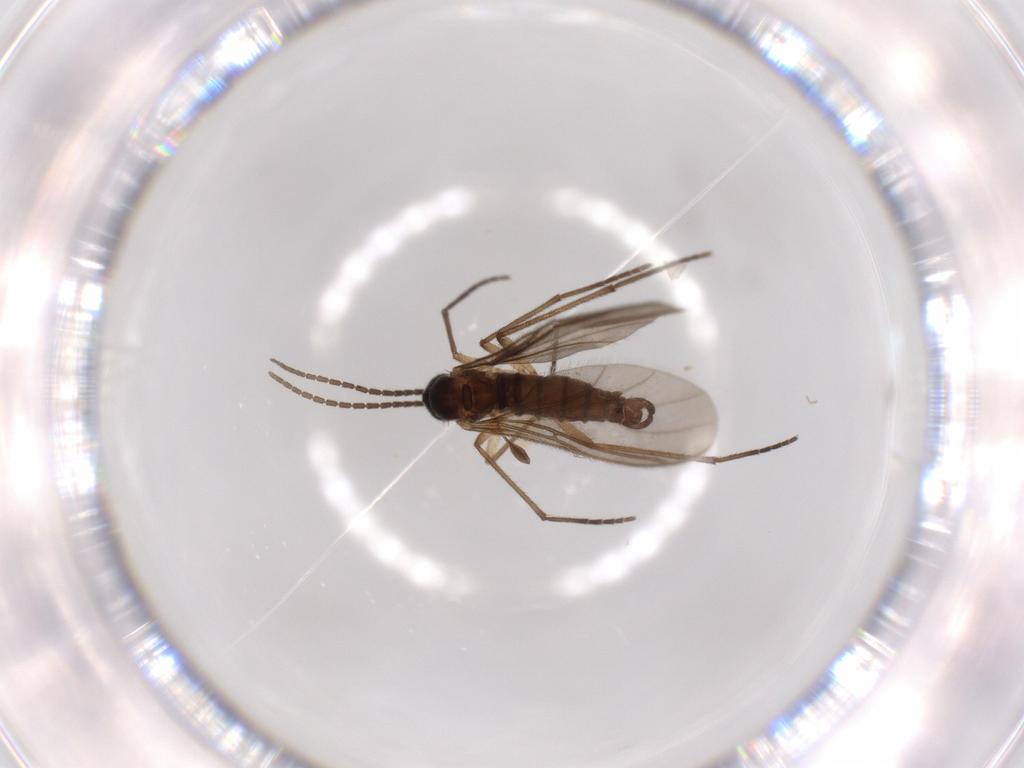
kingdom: Animalia
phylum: Arthropoda
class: Insecta
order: Diptera
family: Sciaridae
